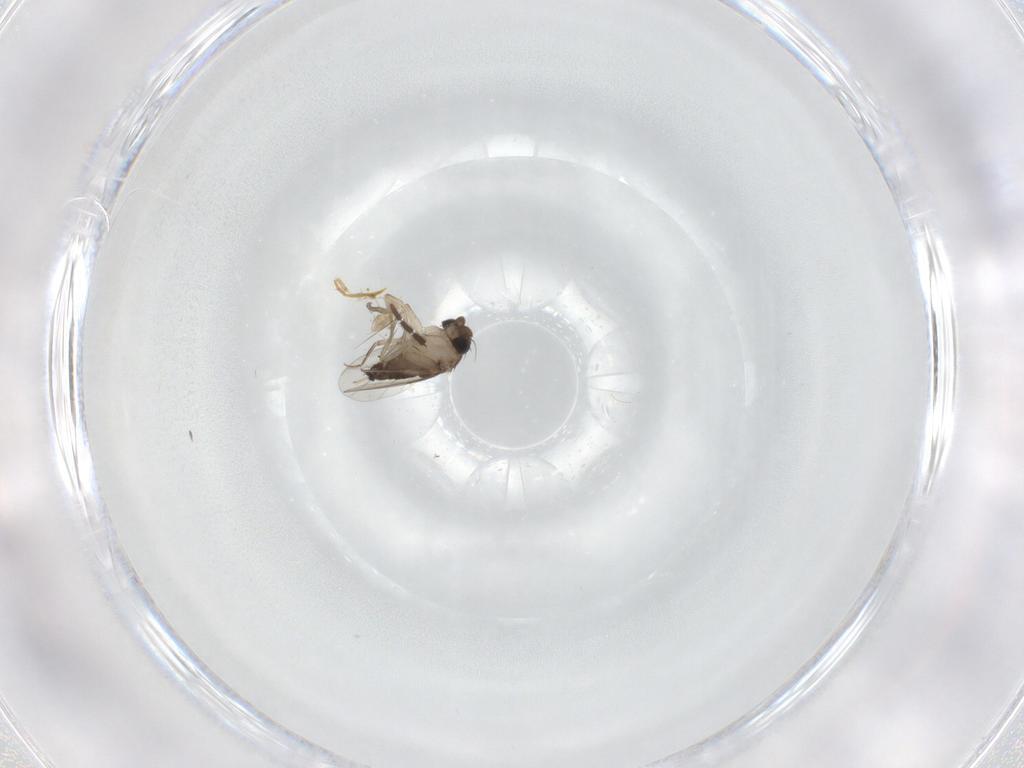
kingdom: Animalia
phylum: Arthropoda
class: Insecta
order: Diptera
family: Phoridae
